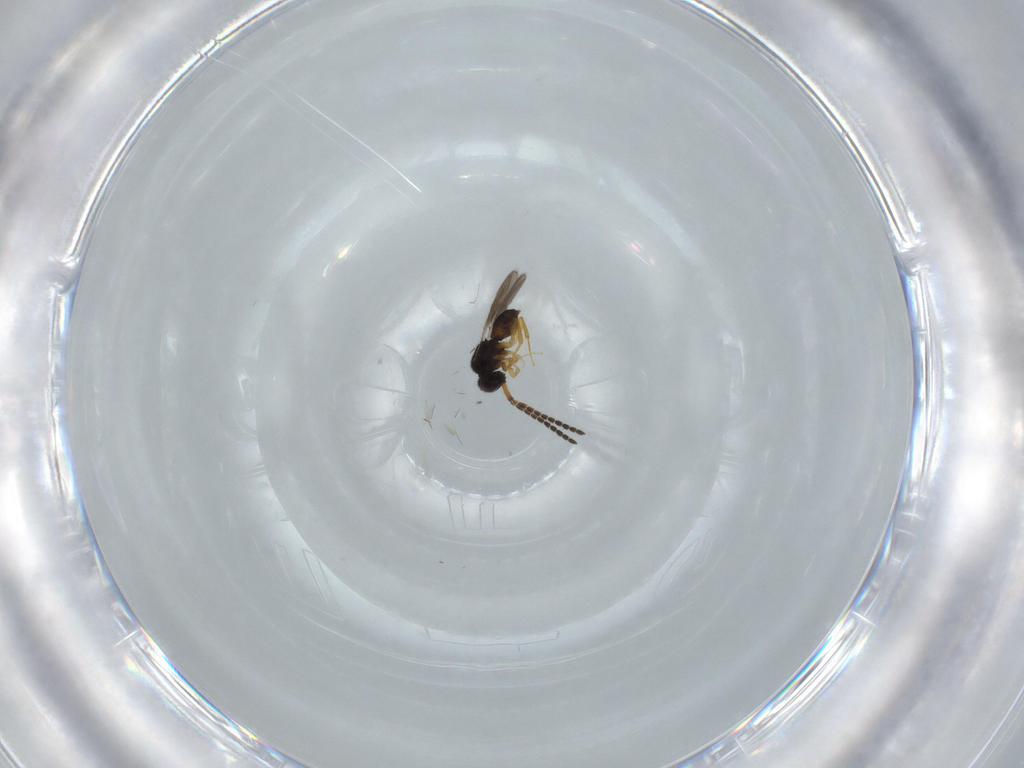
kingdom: Animalia
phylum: Arthropoda
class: Insecta
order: Hymenoptera
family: Ceraphronidae
